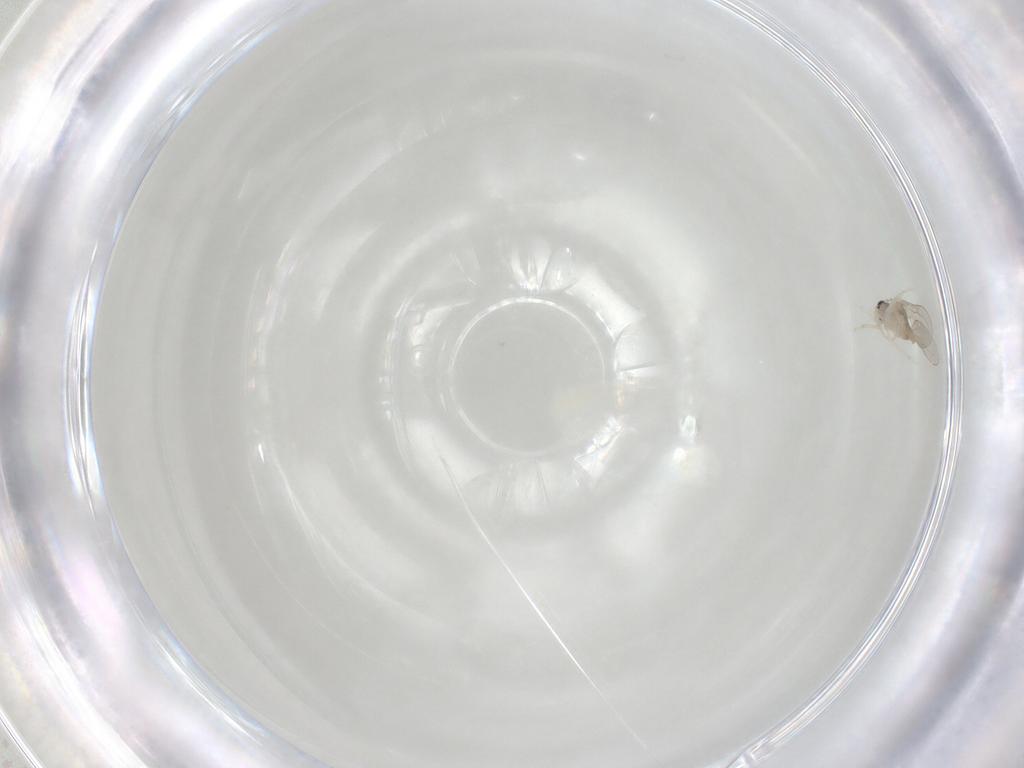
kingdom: Animalia
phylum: Arthropoda
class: Insecta
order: Diptera
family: Cecidomyiidae
